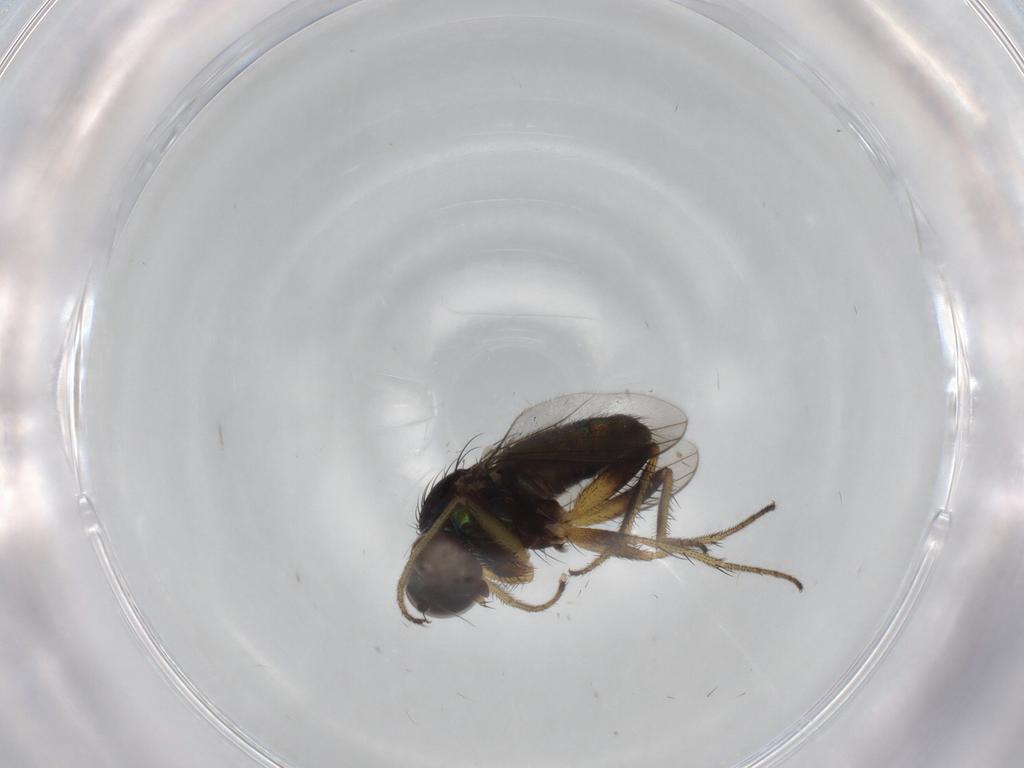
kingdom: Animalia
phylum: Arthropoda
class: Insecta
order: Diptera
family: Dolichopodidae
